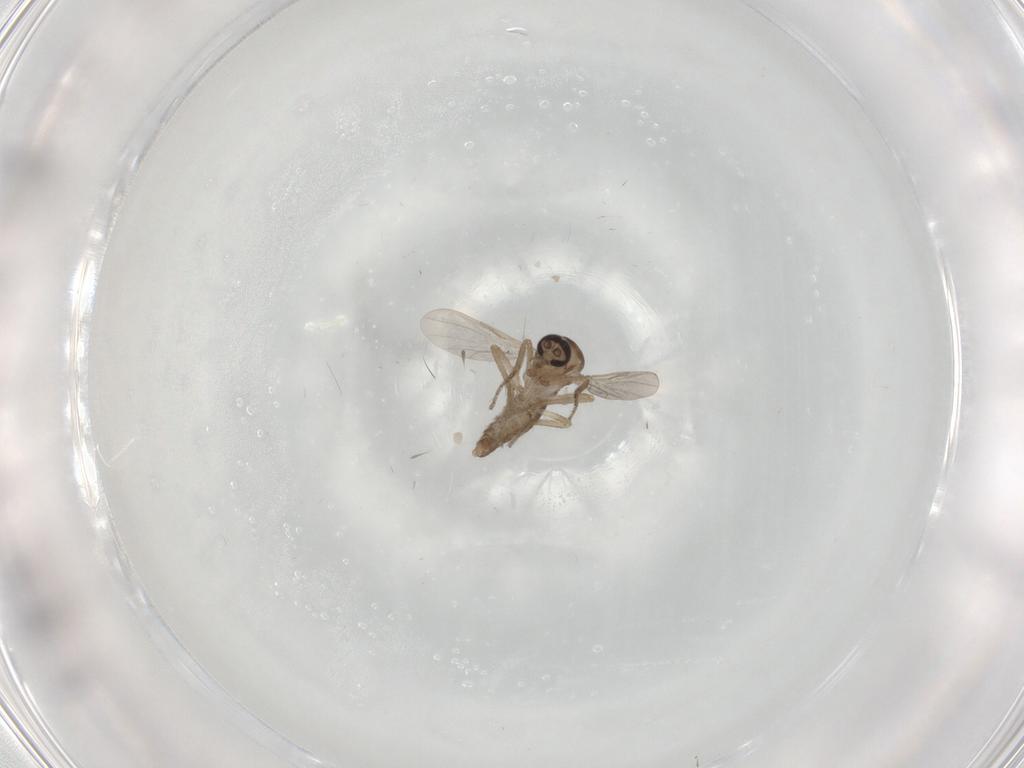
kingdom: Animalia
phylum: Arthropoda
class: Insecta
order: Diptera
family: Ceratopogonidae
